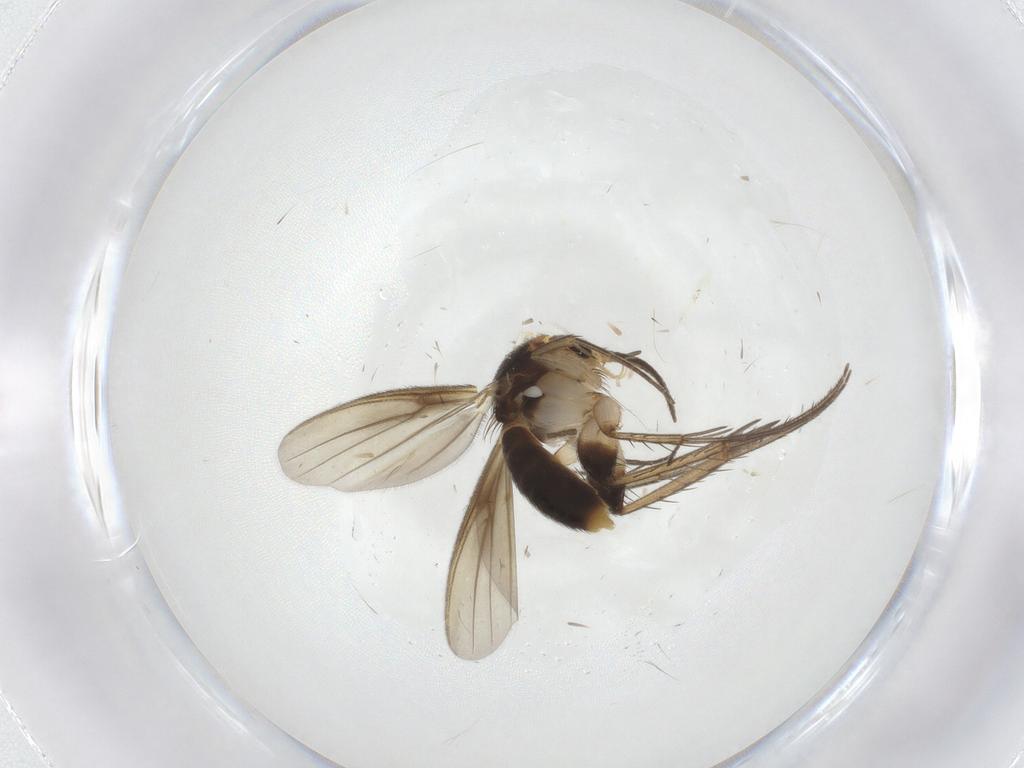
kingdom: Animalia
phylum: Arthropoda
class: Insecta
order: Diptera
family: Mycetophilidae
